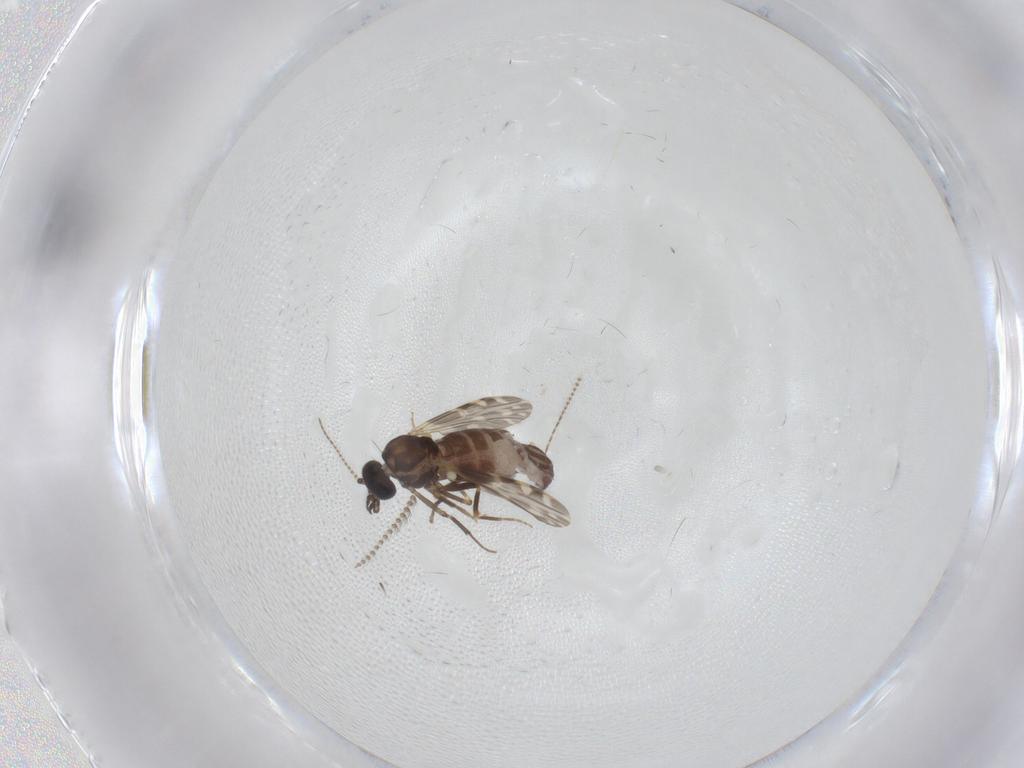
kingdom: Animalia
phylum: Arthropoda
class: Insecta
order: Diptera
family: Ceratopogonidae
